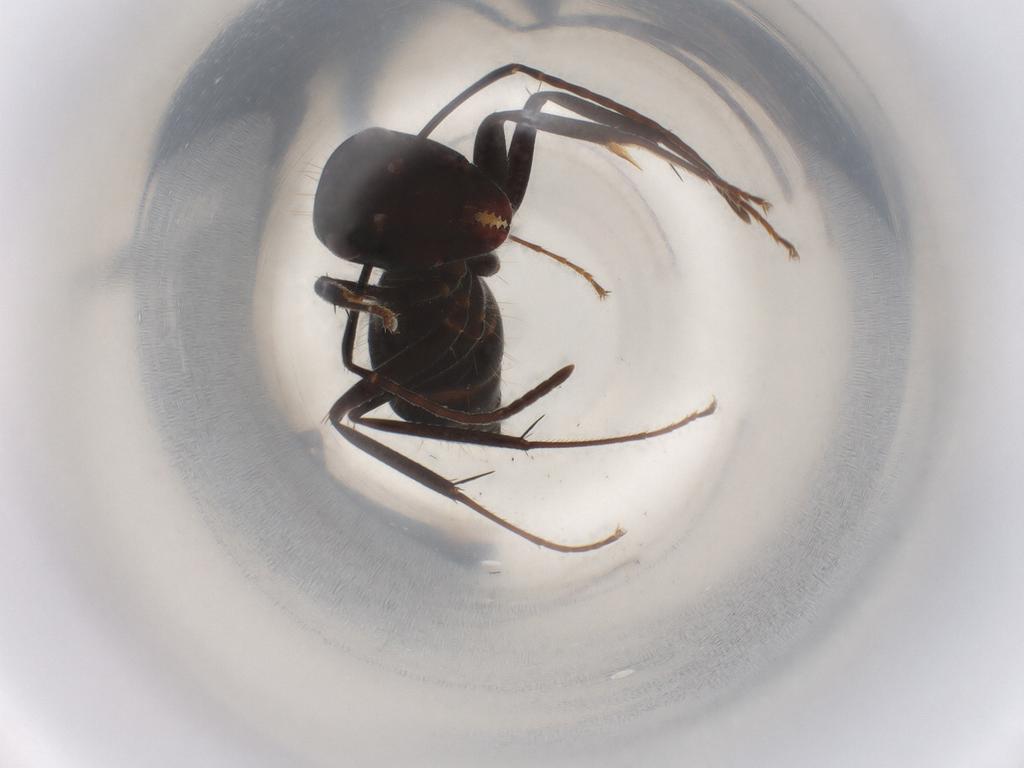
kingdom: Animalia
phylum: Arthropoda
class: Insecta
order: Hymenoptera
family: Formicidae
